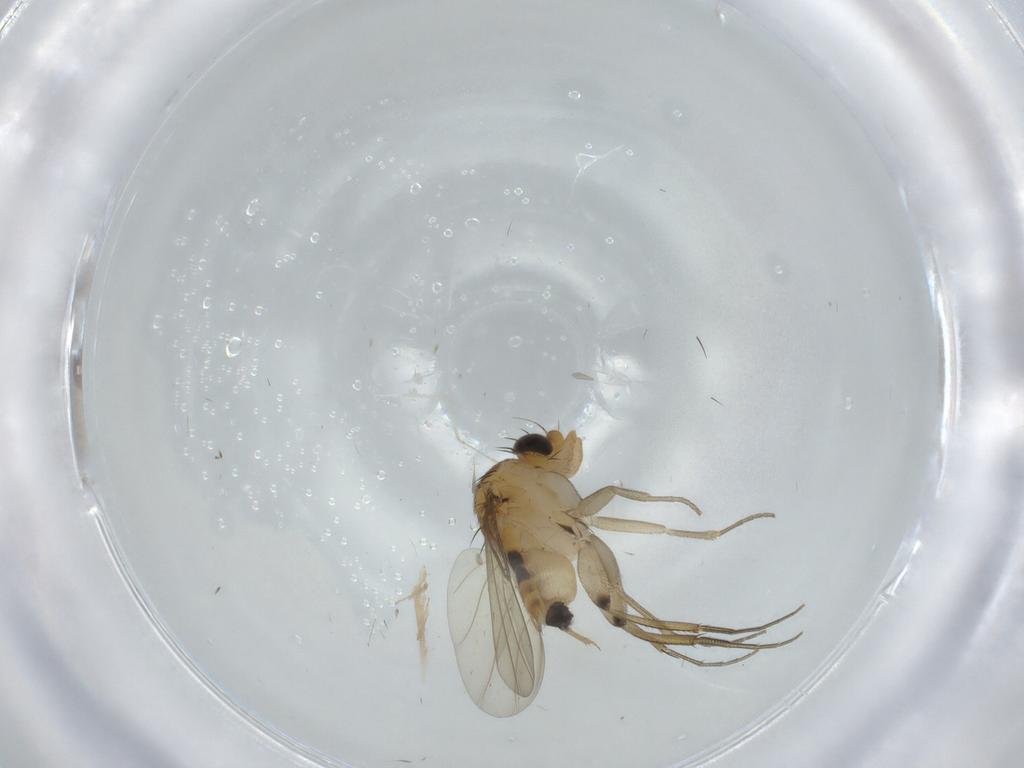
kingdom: Animalia
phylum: Arthropoda
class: Insecta
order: Diptera
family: Phoridae
